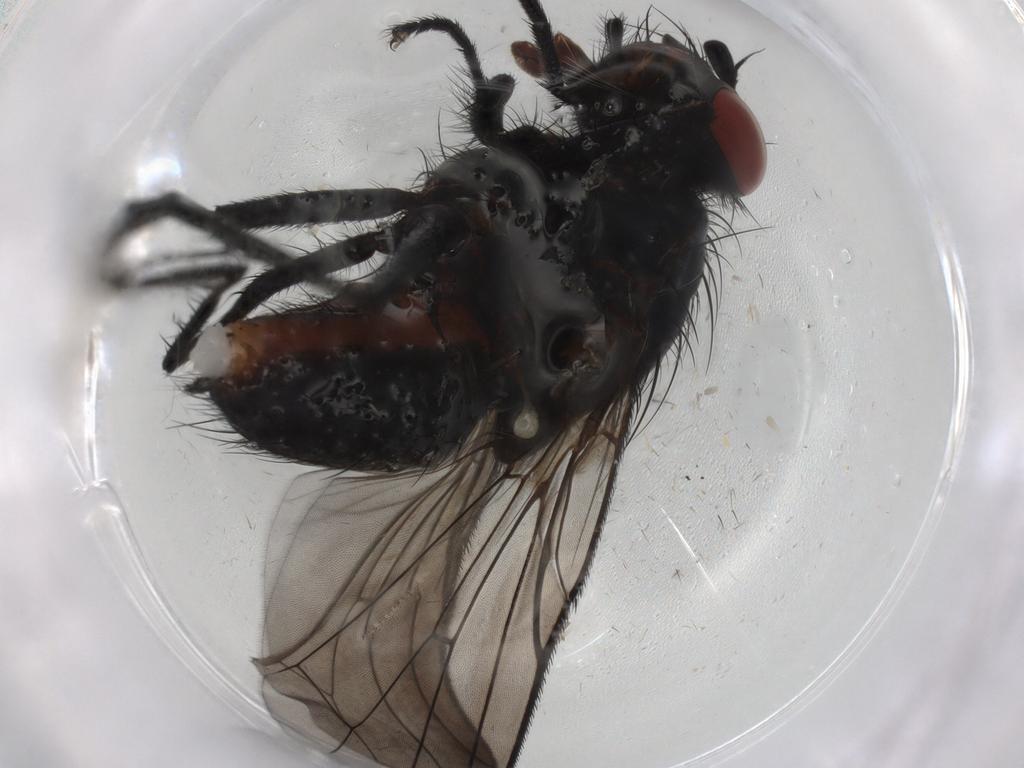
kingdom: Animalia
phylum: Arthropoda
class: Insecta
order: Diptera
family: Anthomyiidae
